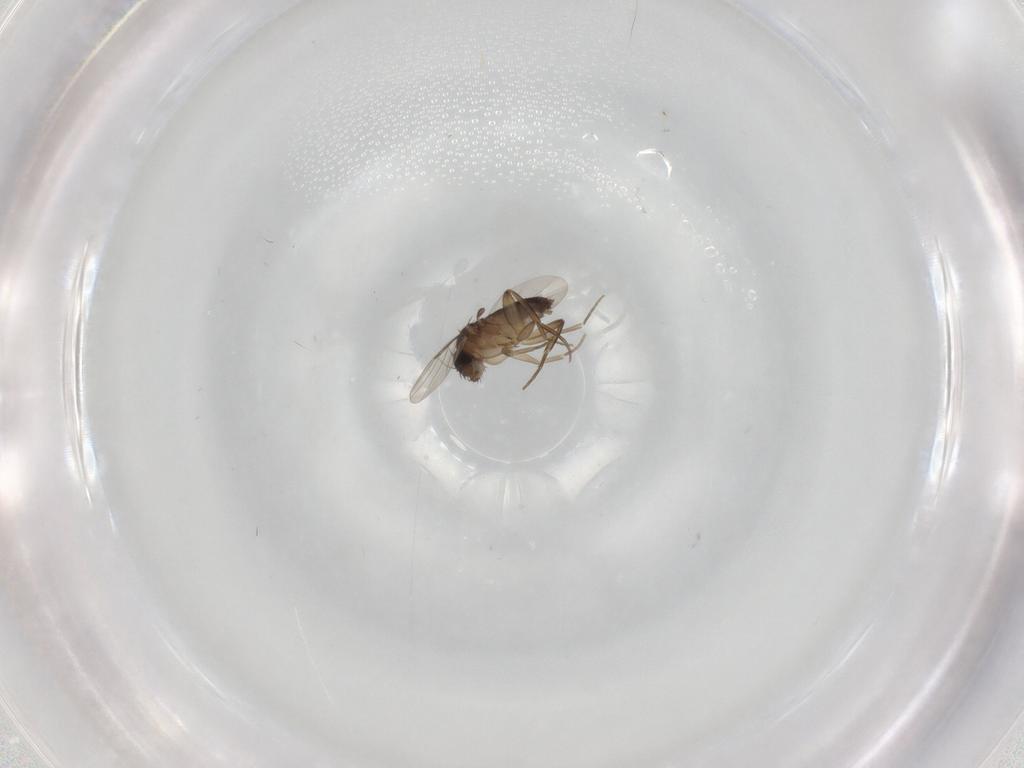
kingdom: Animalia
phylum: Arthropoda
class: Insecta
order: Diptera
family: Phoridae
